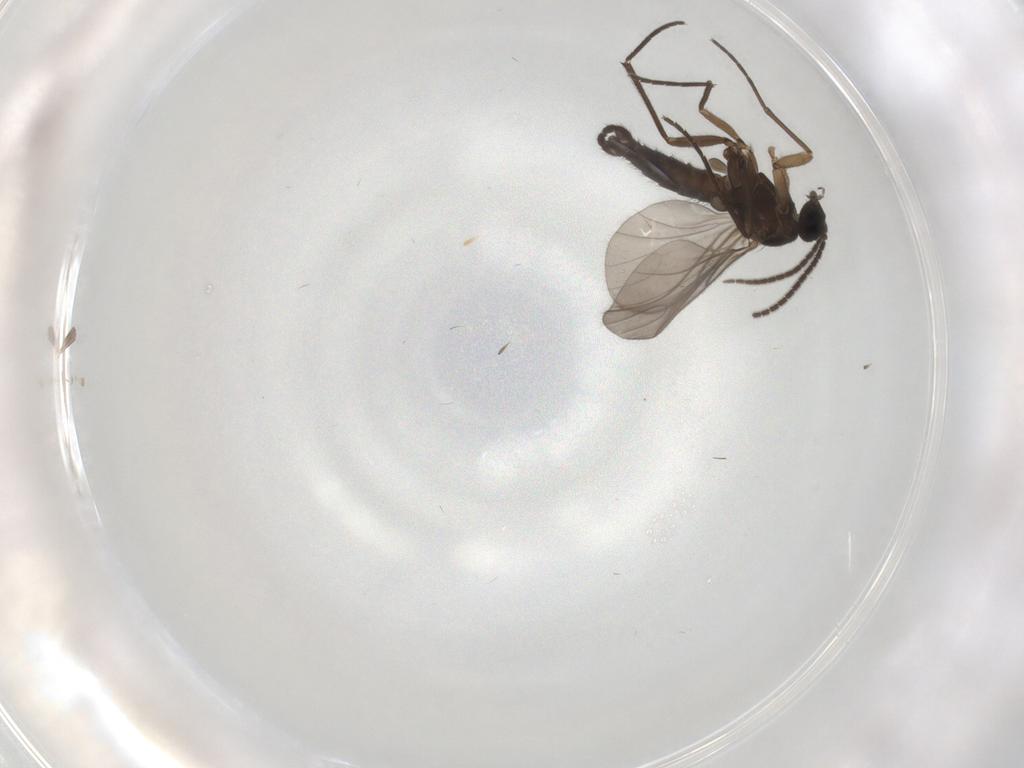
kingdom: Animalia
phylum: Arthropoda
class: Insecta
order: Diptera
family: Sciaridae
